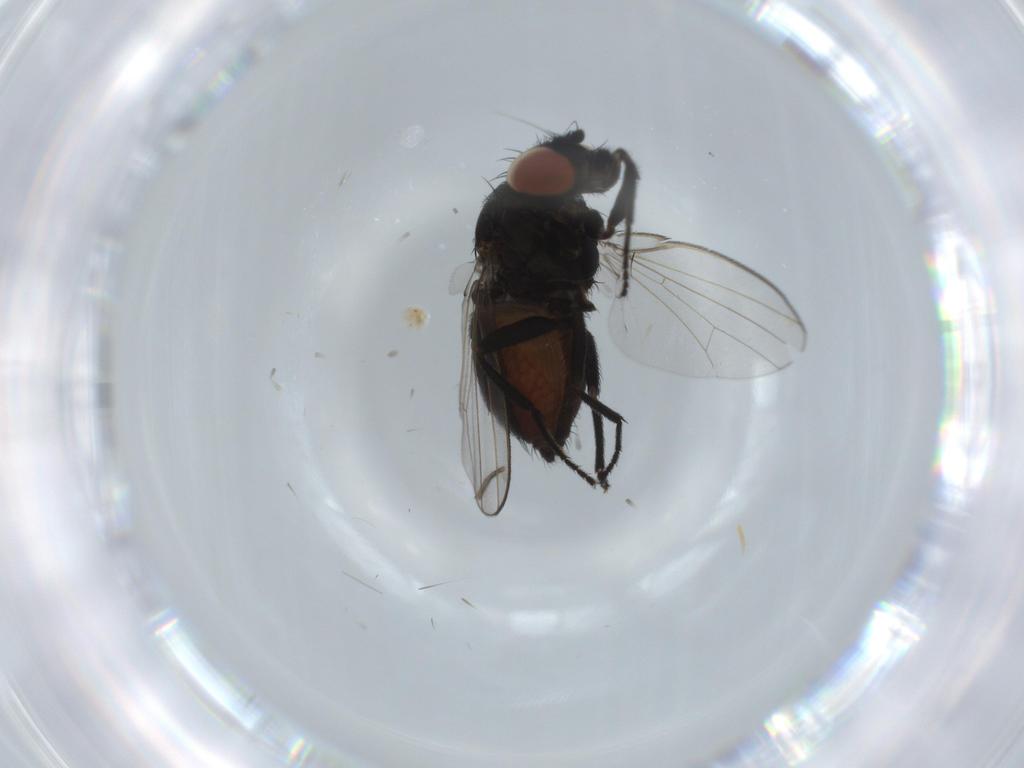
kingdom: Animalia
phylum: Arthropoda
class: Insecta
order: Diptera
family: Milichiidae
